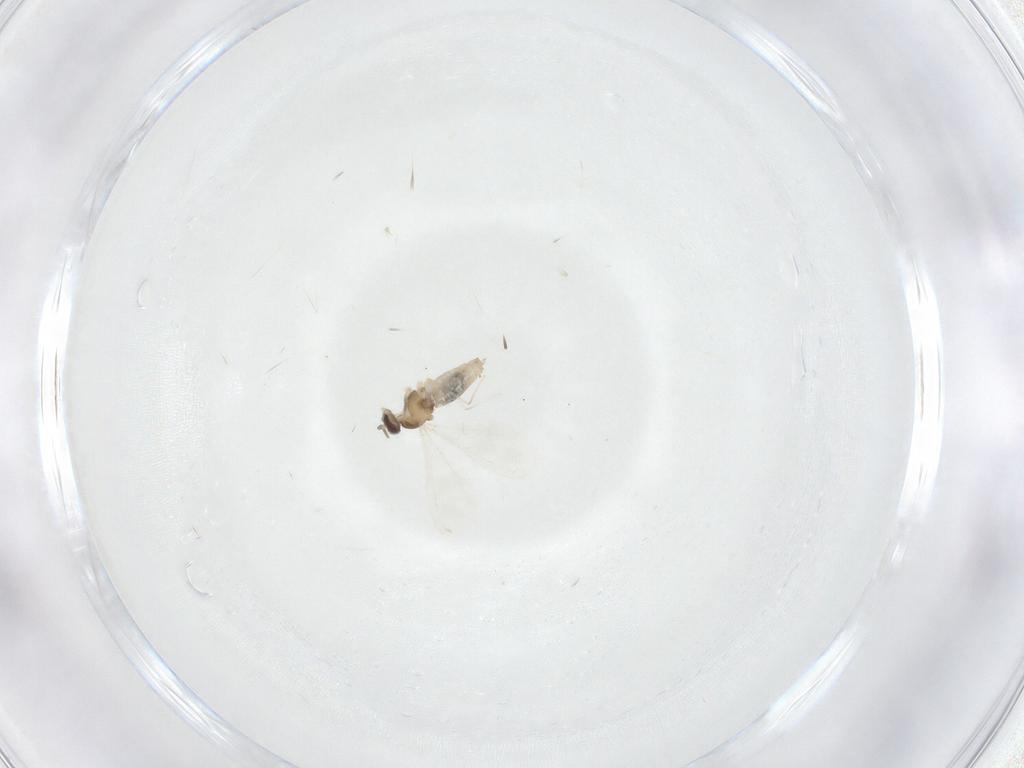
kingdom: Animalia
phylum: Arthropoda
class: Insecta
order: Diptera
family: Cecidomyiidae
